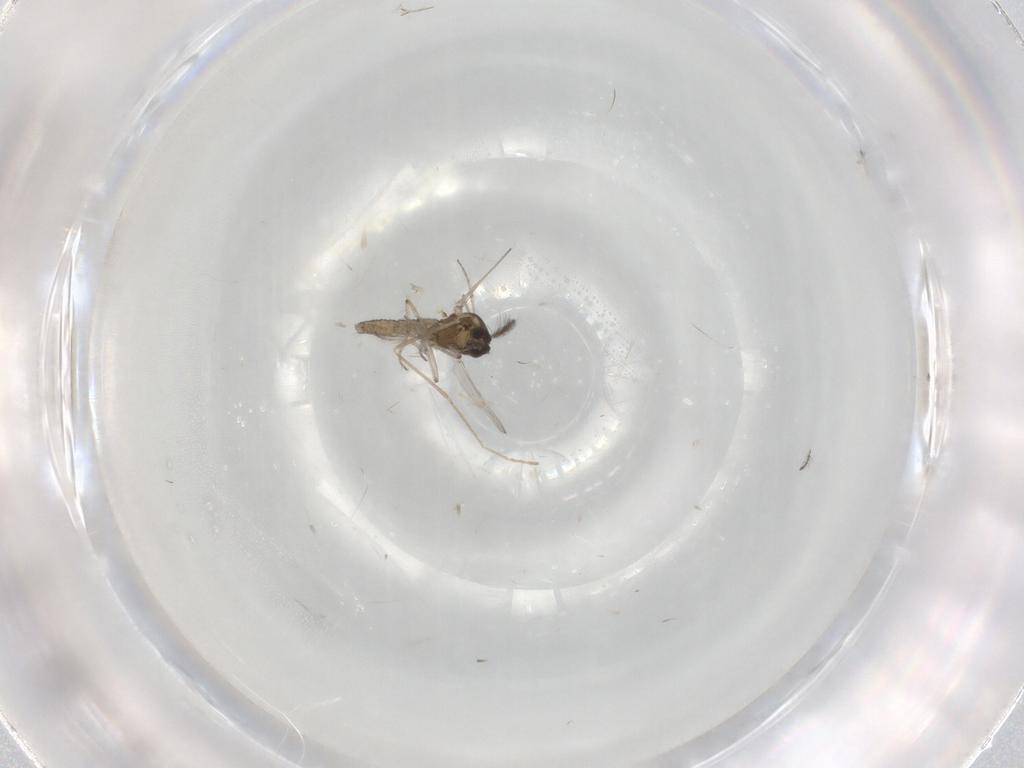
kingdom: Animalia
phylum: Arthropoda
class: Insecta
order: Diptera
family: Ceratopogonidae
